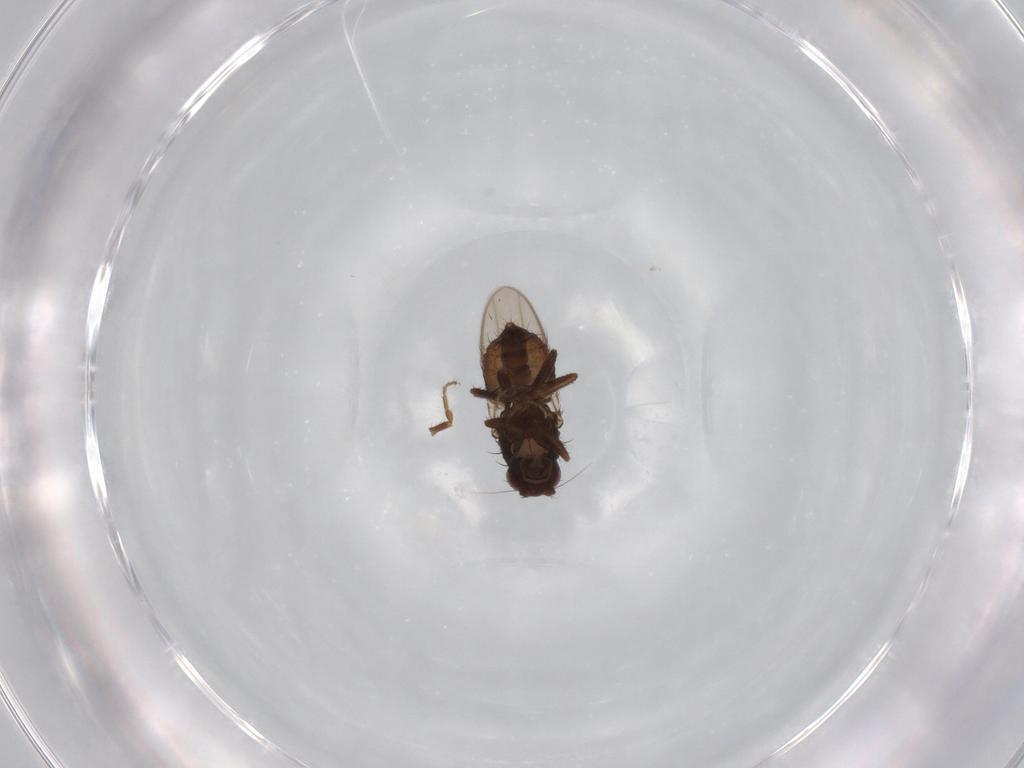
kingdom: Animalia
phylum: Arthropoda
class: Insecta
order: Diptera
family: Sphaeroceridae
